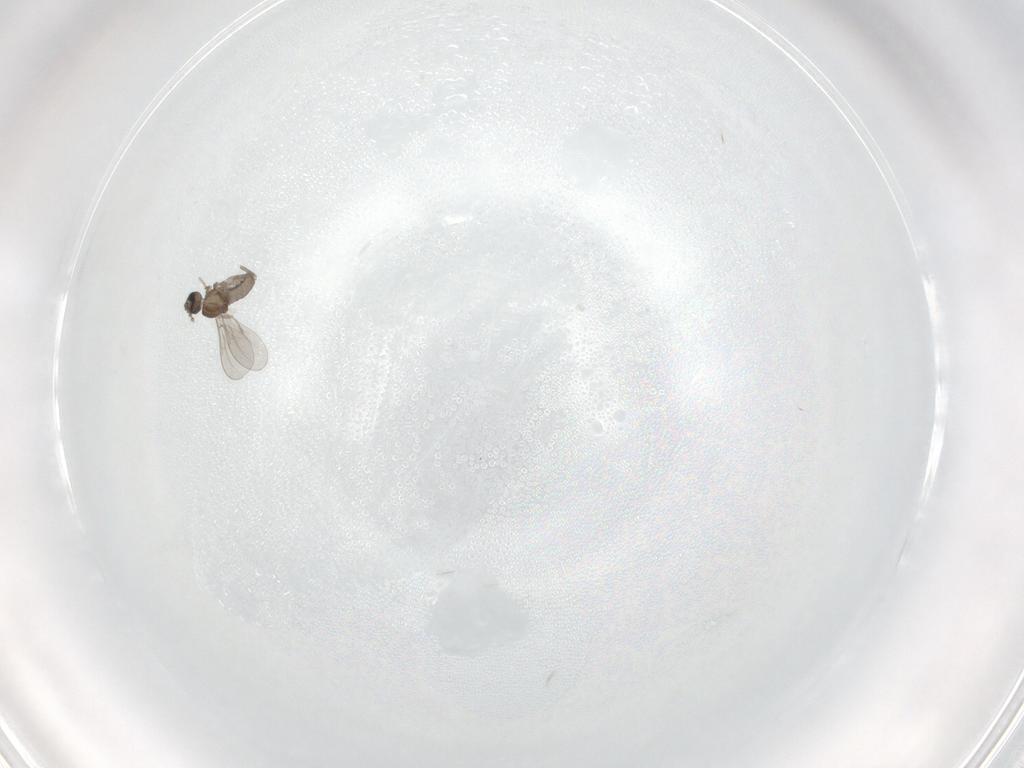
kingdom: Animalia
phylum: Arthropoda
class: Insecta
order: Diptera
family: Cecidomyiidae
